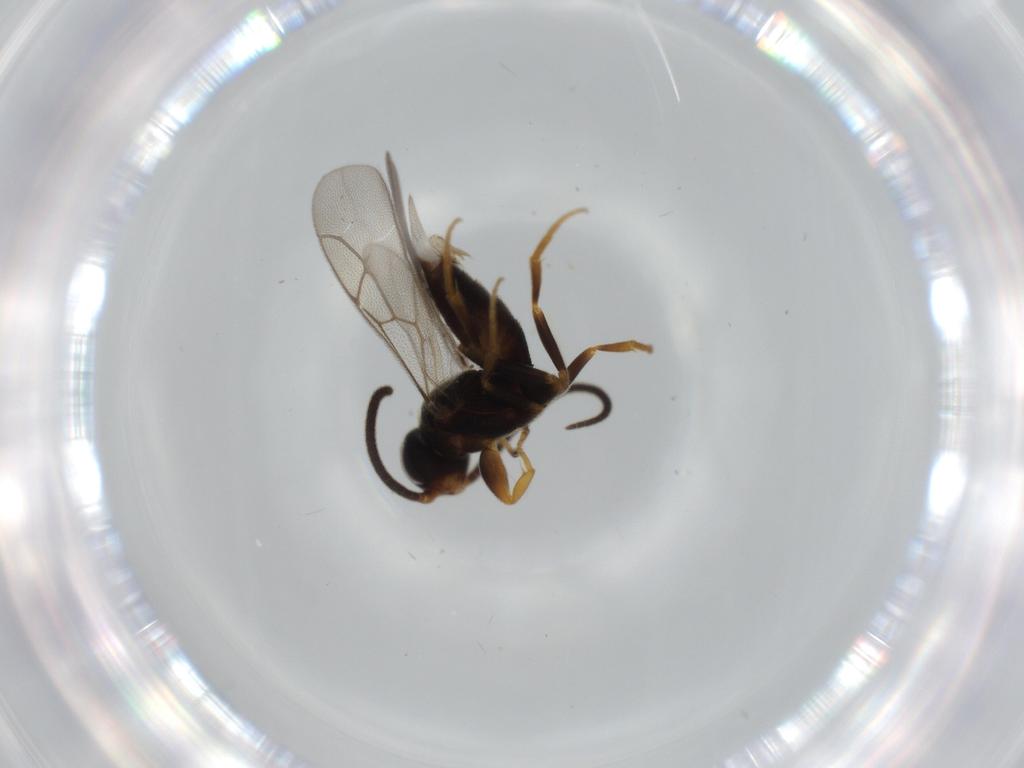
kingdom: Animalia
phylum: Arthropoda
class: Insecta
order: Hymenoptera
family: Sclerogibbidae
